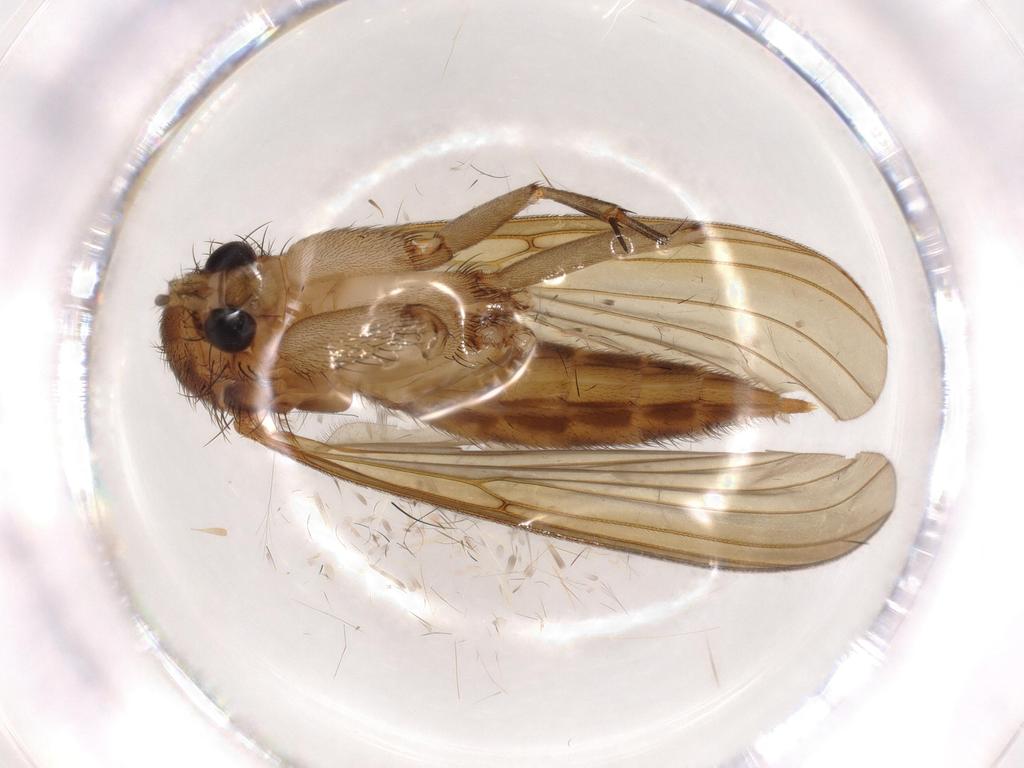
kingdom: Animalia
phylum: Arthropoda
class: Insecta
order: Diptera
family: Mycetophilidae
